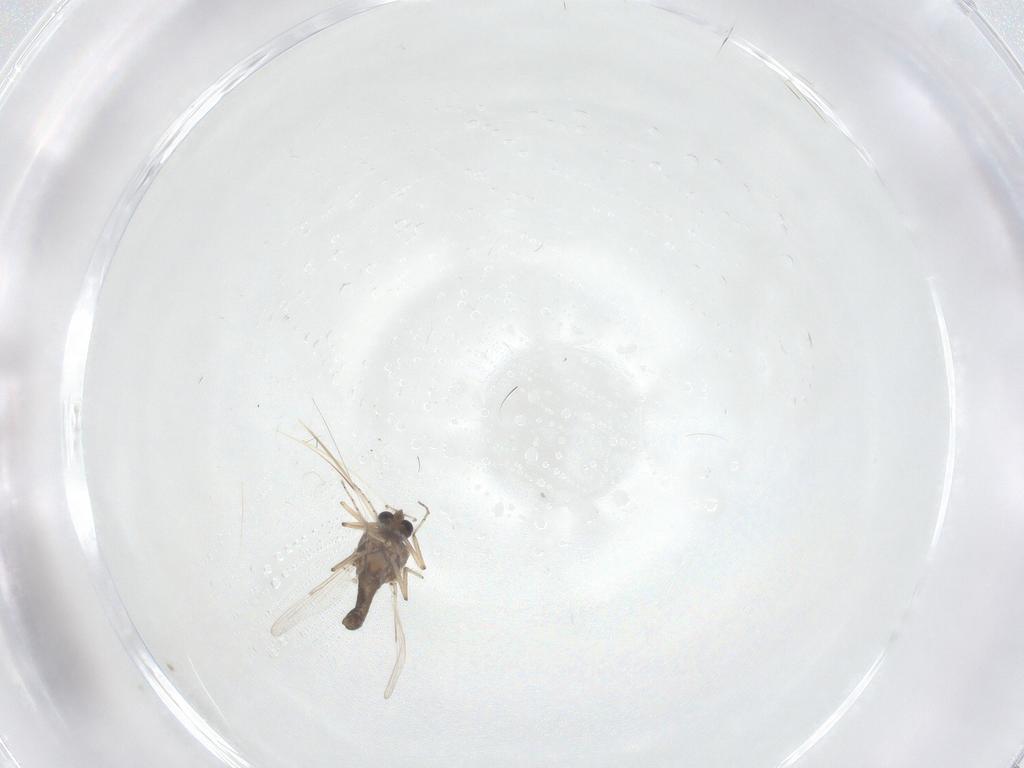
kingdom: Animalia
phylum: Arthropoda
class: Insecta
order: Diptera
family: Ceratopogonidae
